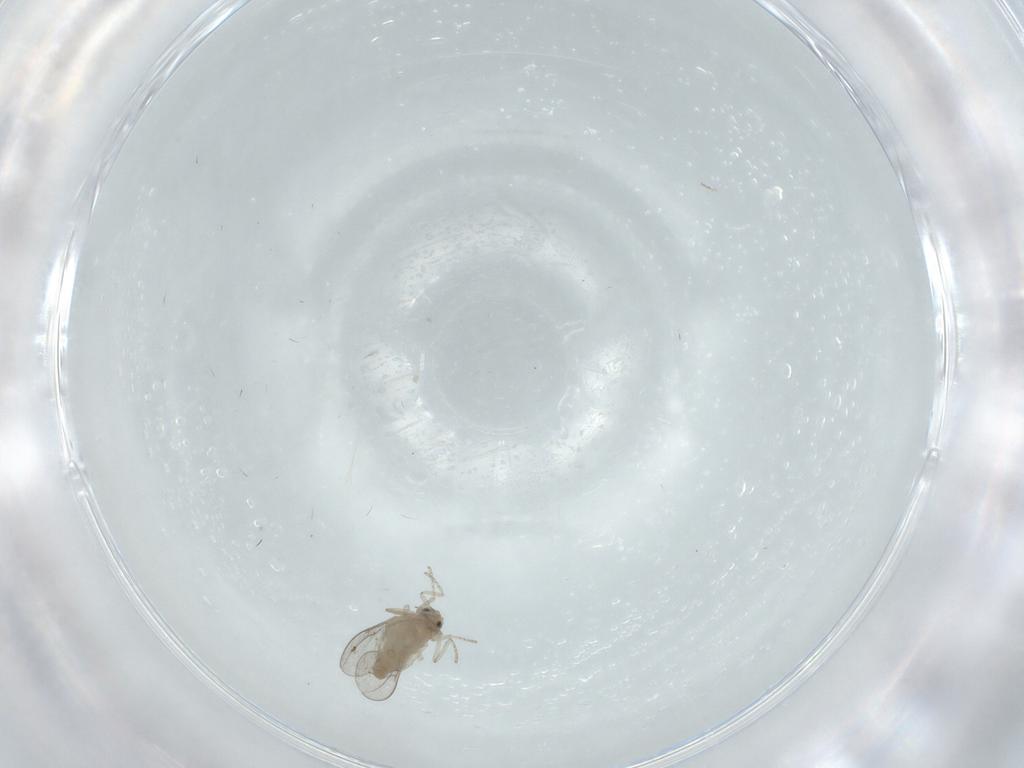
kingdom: Animalia
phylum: Arthropoda
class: Insecta
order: Diptera
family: Cecidomyiidae
